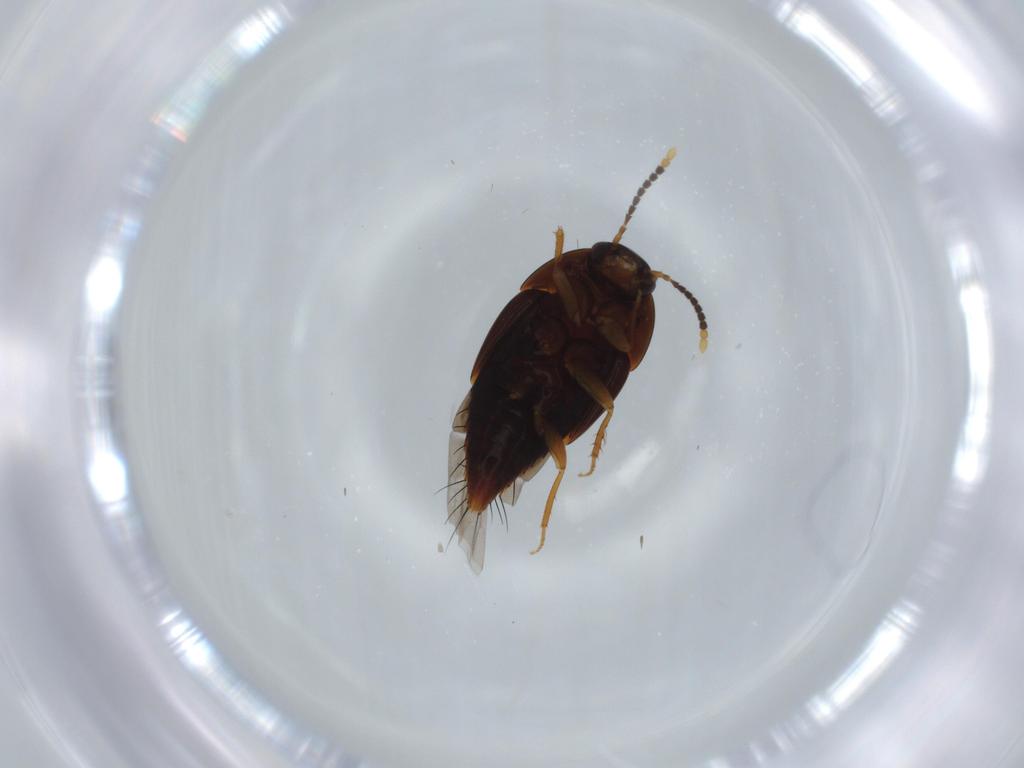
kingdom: Animalia
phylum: Arthropoda
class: Insecta
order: Coleoptera
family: Staphylinidae
